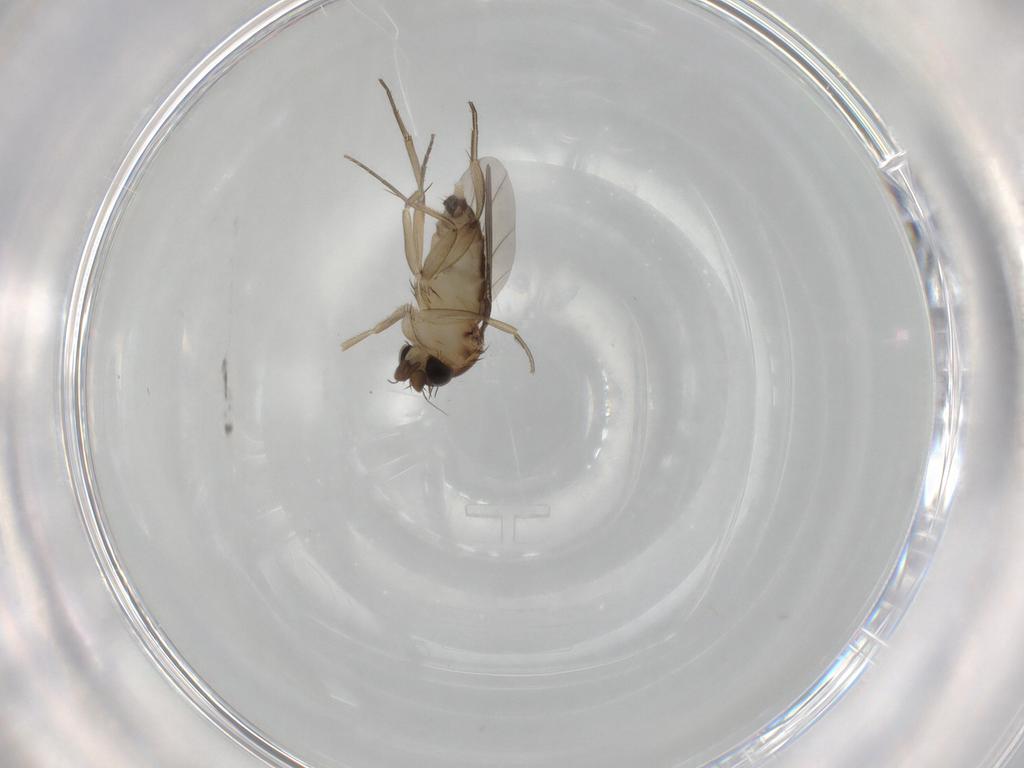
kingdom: Animalia
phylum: Arthropoda
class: Insecta
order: Diptera
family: Phoridae
